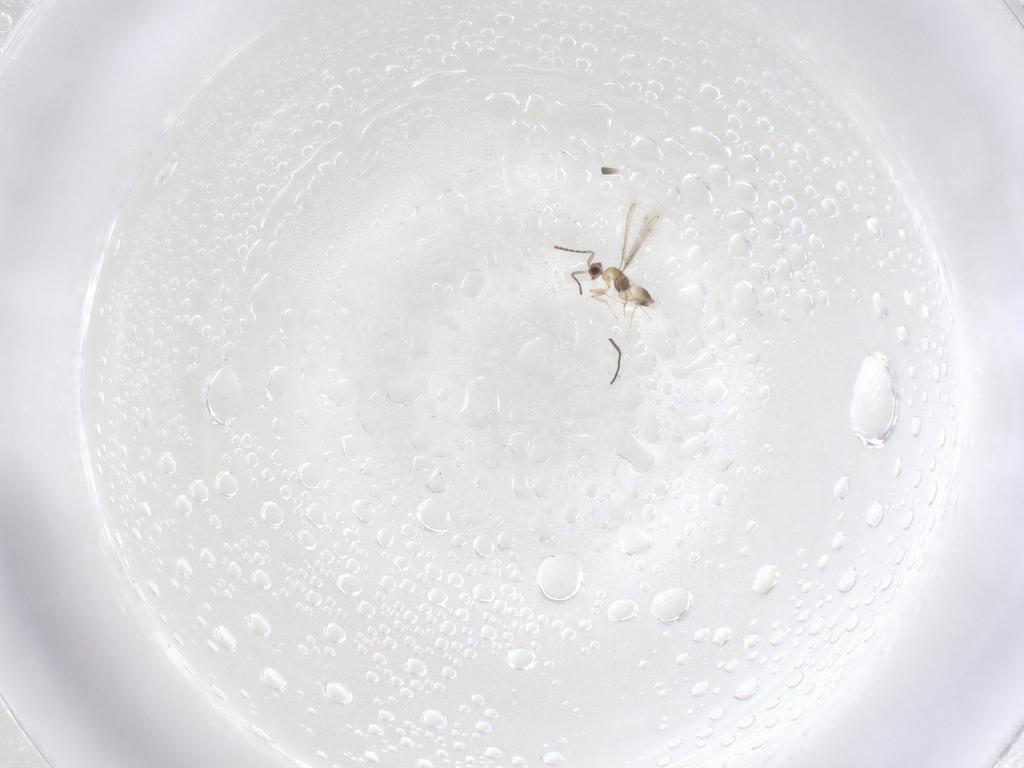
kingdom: Animalia
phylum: Arthropoda
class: Insecta
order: Hymenoptera
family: Mymaridae
